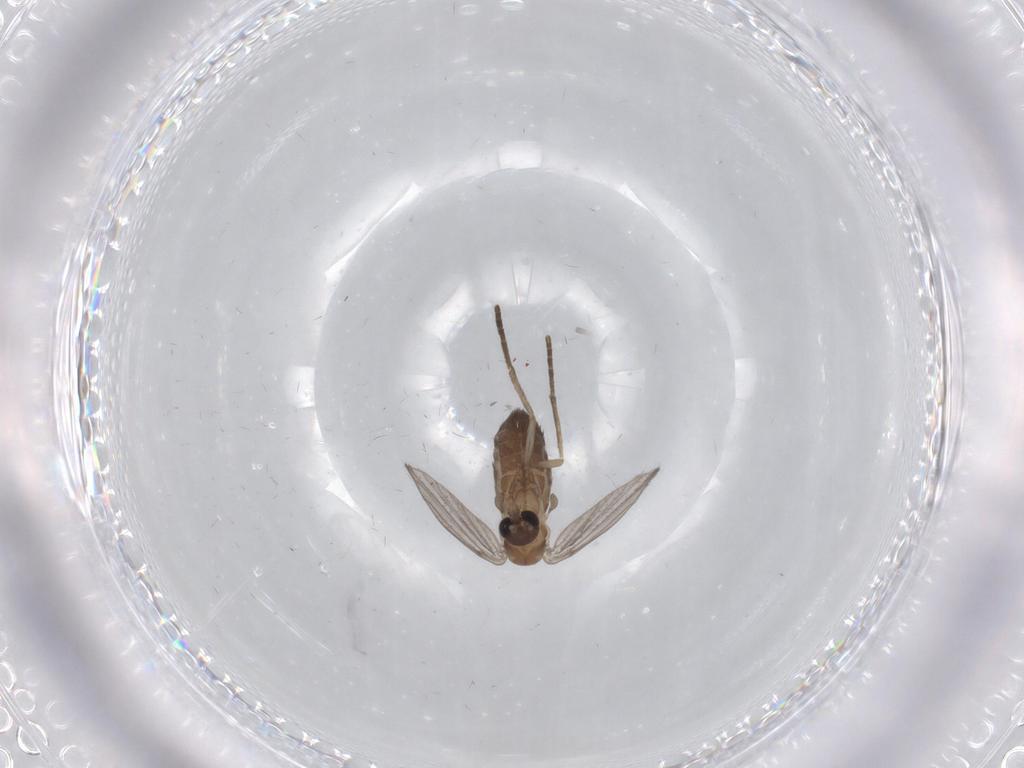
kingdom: Animalia
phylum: Arthropoda
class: Insecta
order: Diptera
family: Psychodidae
